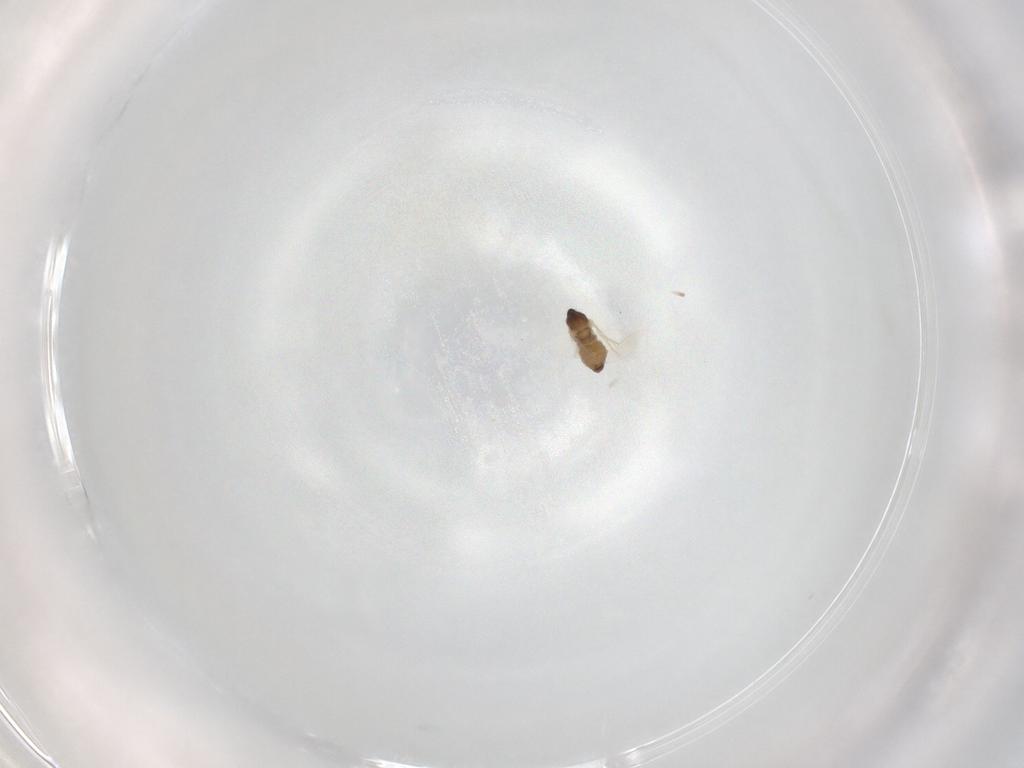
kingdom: Animalia
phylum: Arthropoda
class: Insecta
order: Diptera
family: Cecidomyiidae
